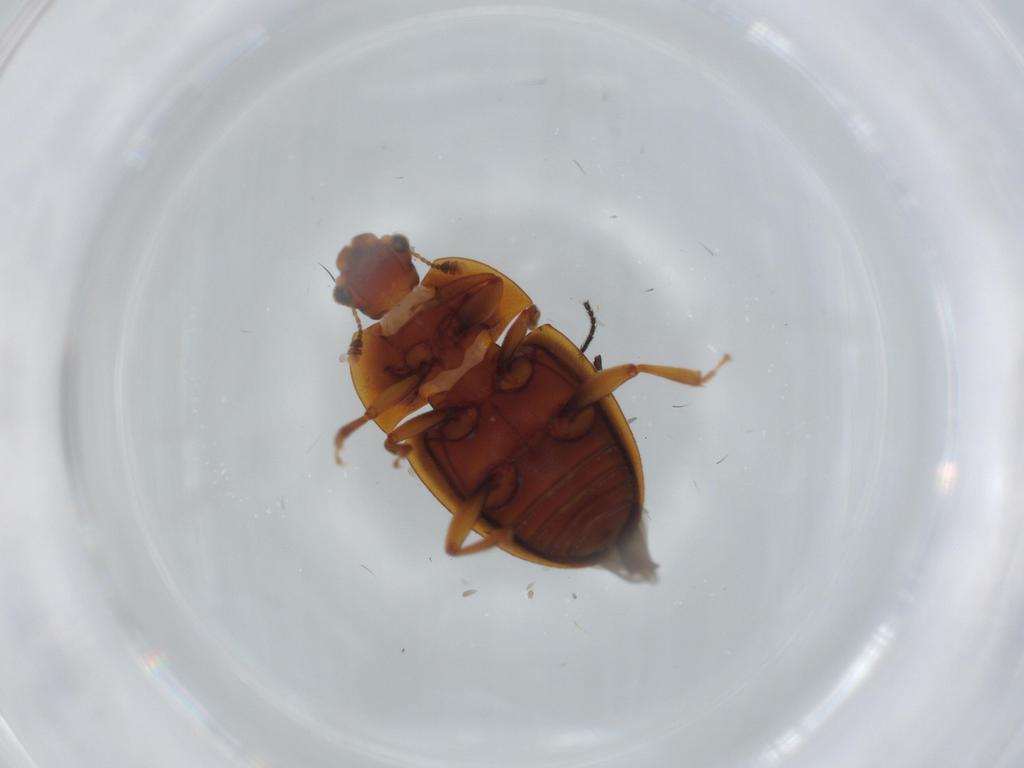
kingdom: Animalia
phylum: Arthropoda
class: Insecta
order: Coleoptera
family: Nitidulidae
